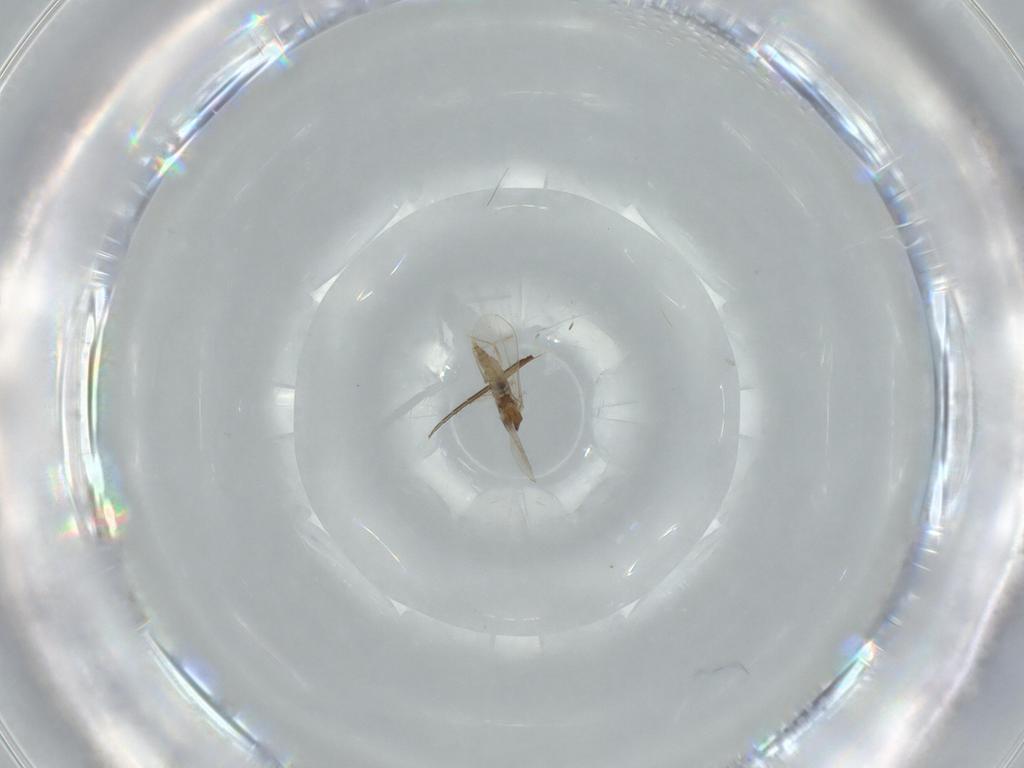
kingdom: Animalia
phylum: Arthropoda
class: Insecta
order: Diptera
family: Phoridae
